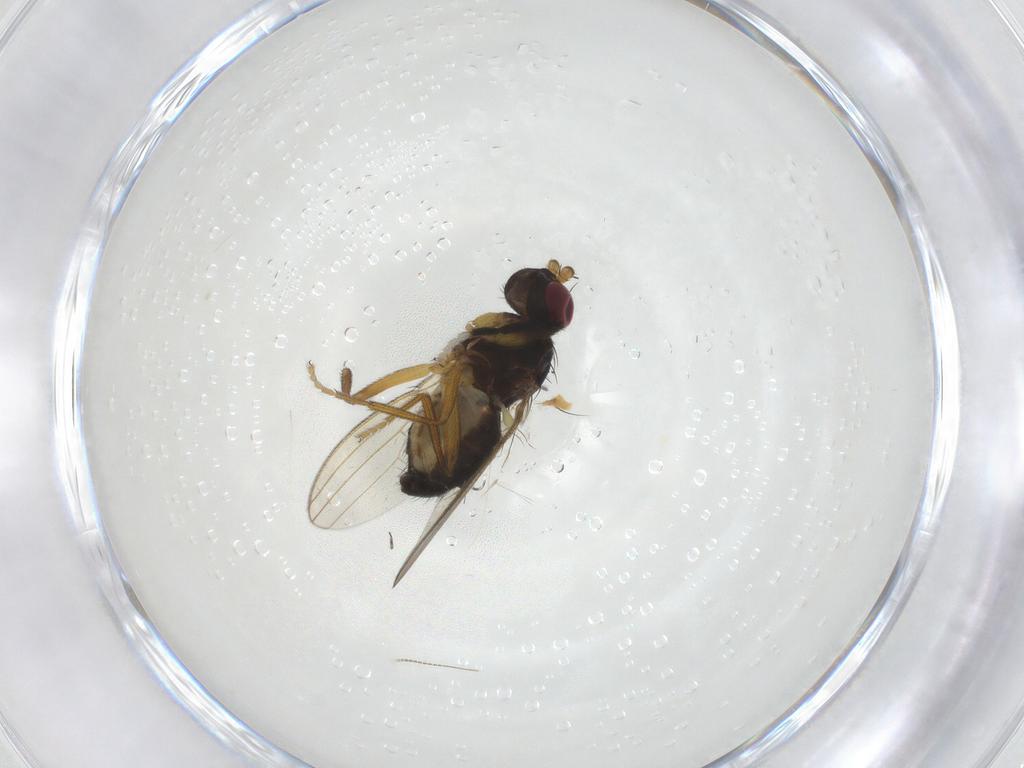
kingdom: Animalia
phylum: Arthropoda
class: Insecta
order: Diptera
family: Cypselosomatidae
